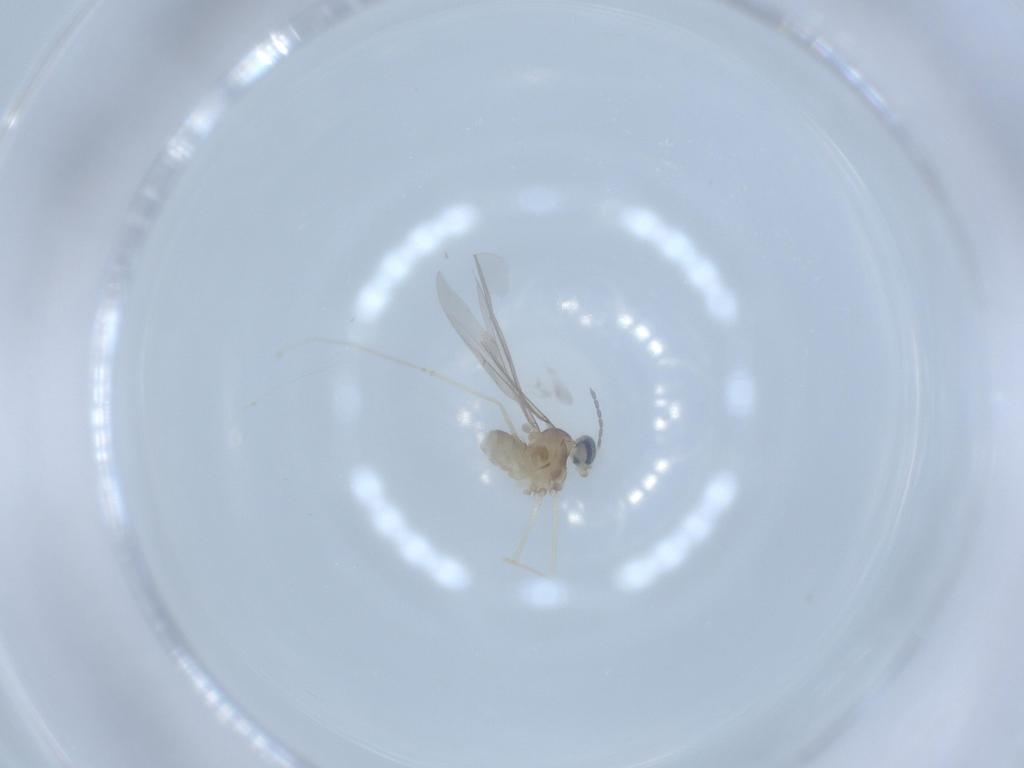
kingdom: Animalia
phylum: Arthropoda
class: Insecta
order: Diptera
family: Cecidomyiidae
